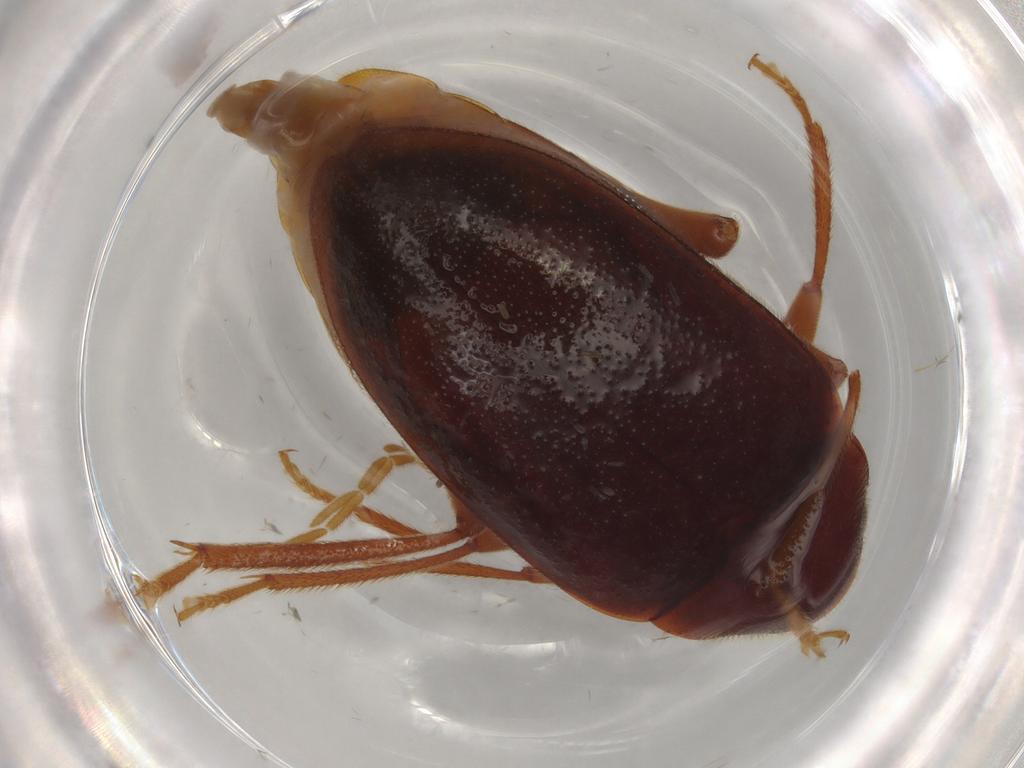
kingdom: Animalia
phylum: Arthropoda
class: Insecta
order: Coleoptera
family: Ptilodactylidae
